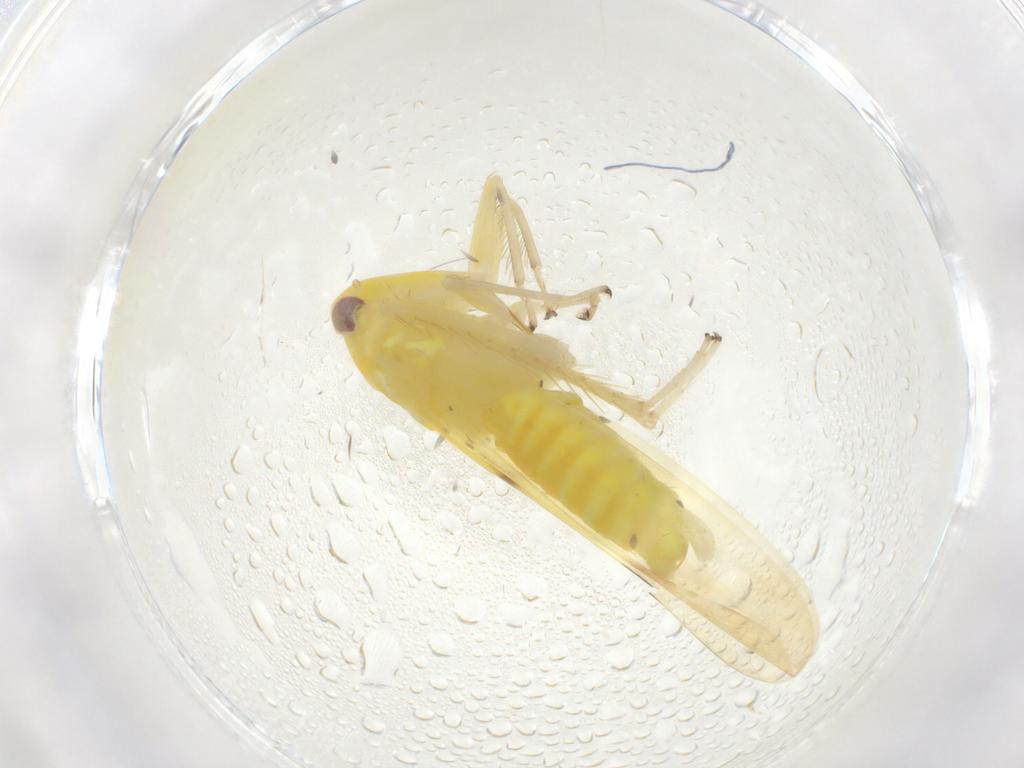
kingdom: Animalia
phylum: Arthropoda
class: Insecta
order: Hemiptera
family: Cicadellidae
